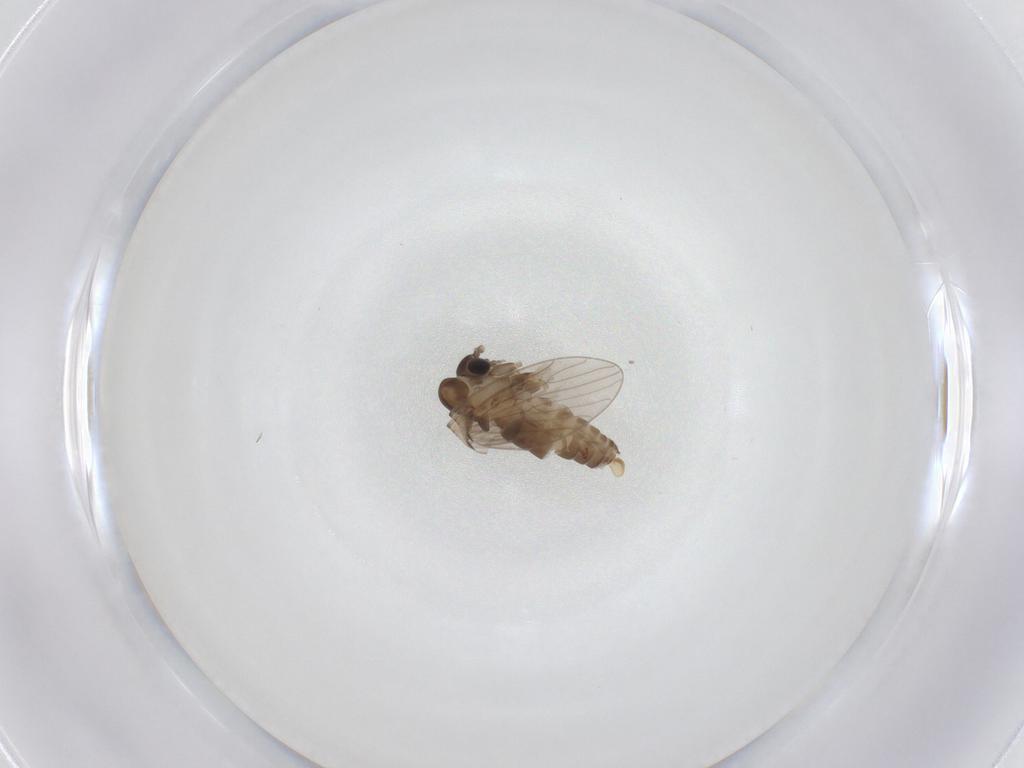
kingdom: Animalia
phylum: Arthropoda
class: Insecta
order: Diptera
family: Psychodidae
